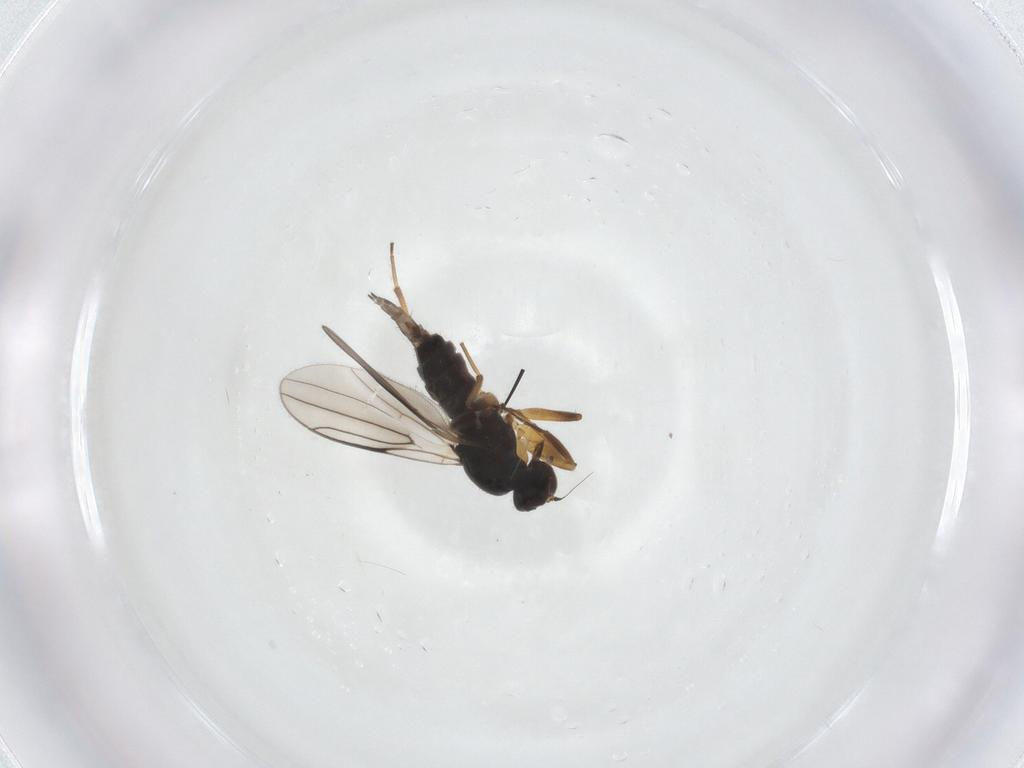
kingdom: Animalia
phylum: Arthropoda
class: Insecta
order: Diptera
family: Hybotidae
